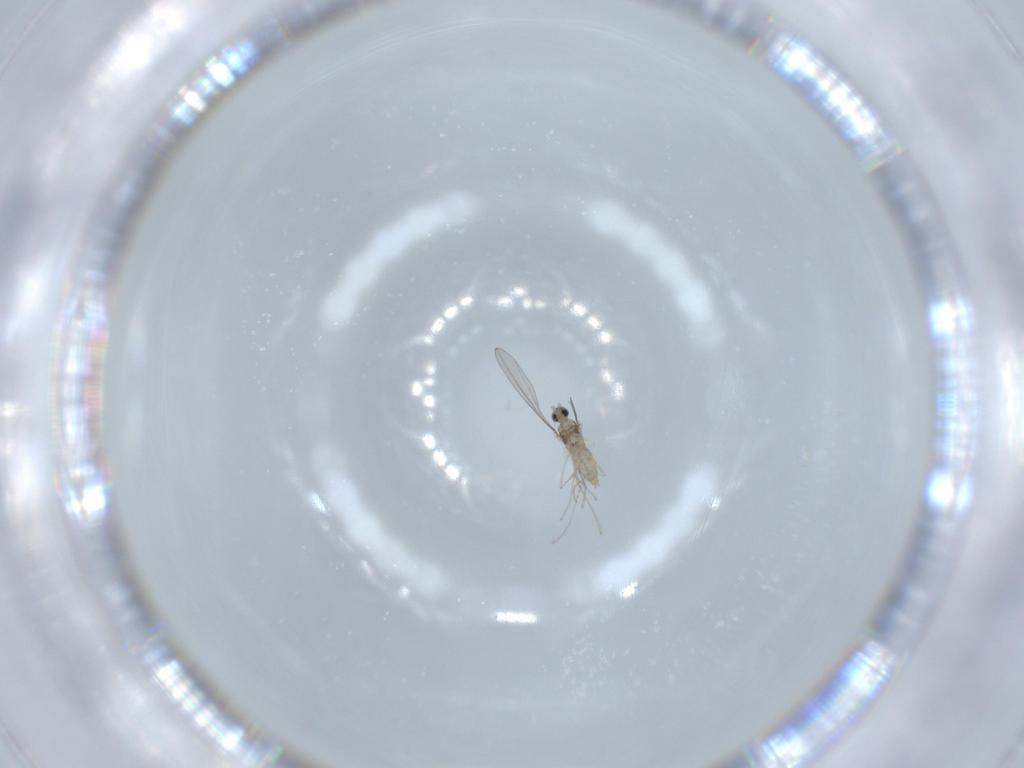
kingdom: Animalia
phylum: Arthropoda
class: Insecta
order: Diptera
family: Cecidomyiidae
